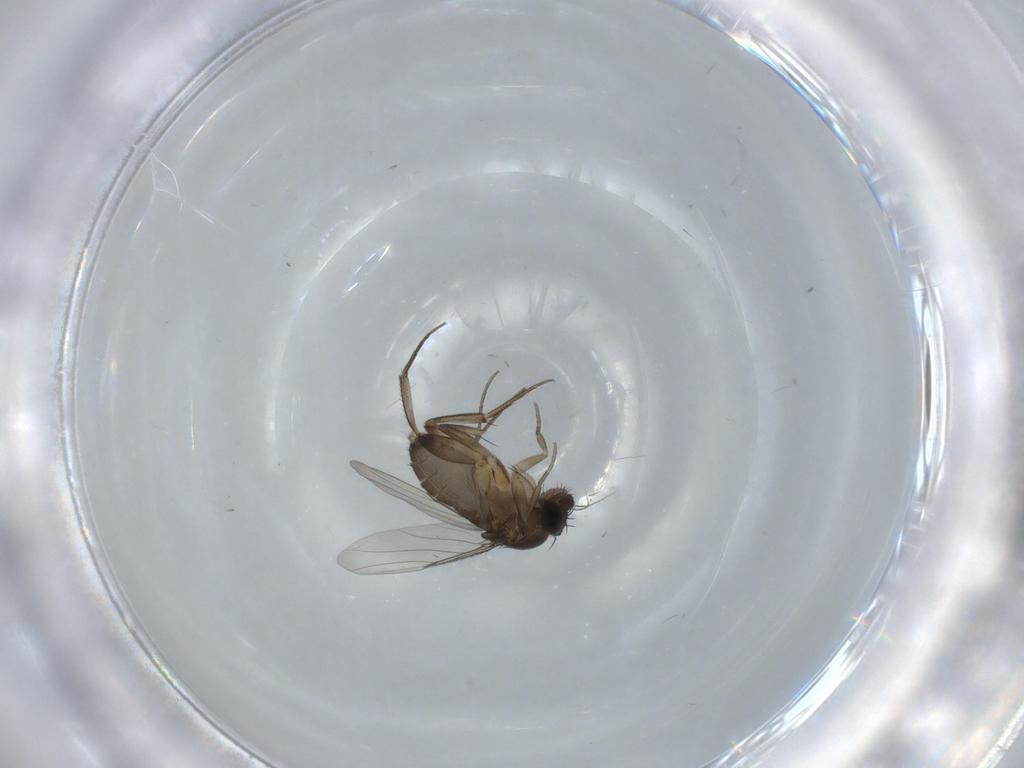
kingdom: Animalia
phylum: Arthropoda
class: Insecta
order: Diptera
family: Phoridae
